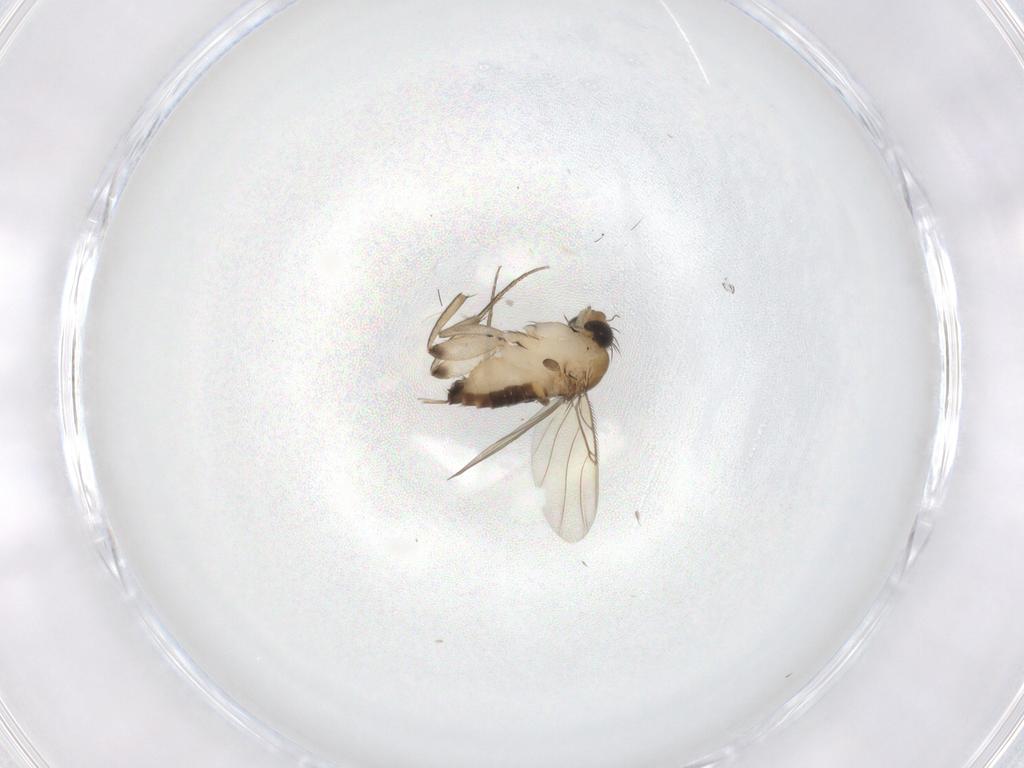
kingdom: Animalia
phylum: Arthropoda
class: Insecta
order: Diptera
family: Phoridae
